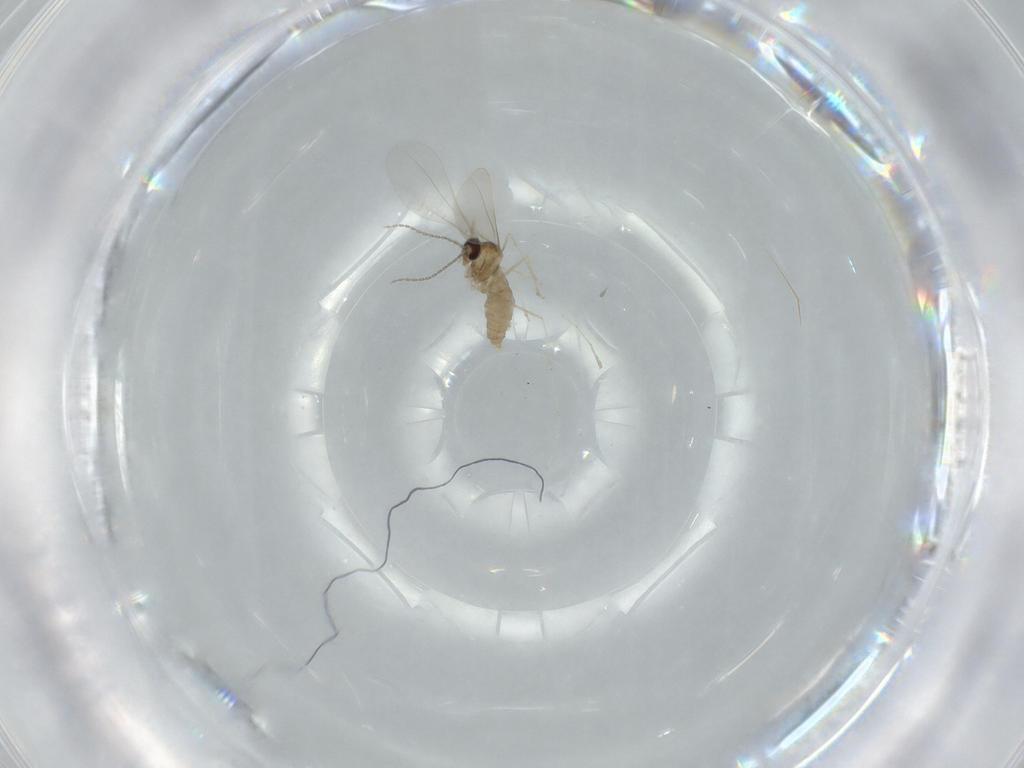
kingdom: Animalia
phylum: Arthropoda
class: Insecta
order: Diptera
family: Cecidomyiidae
